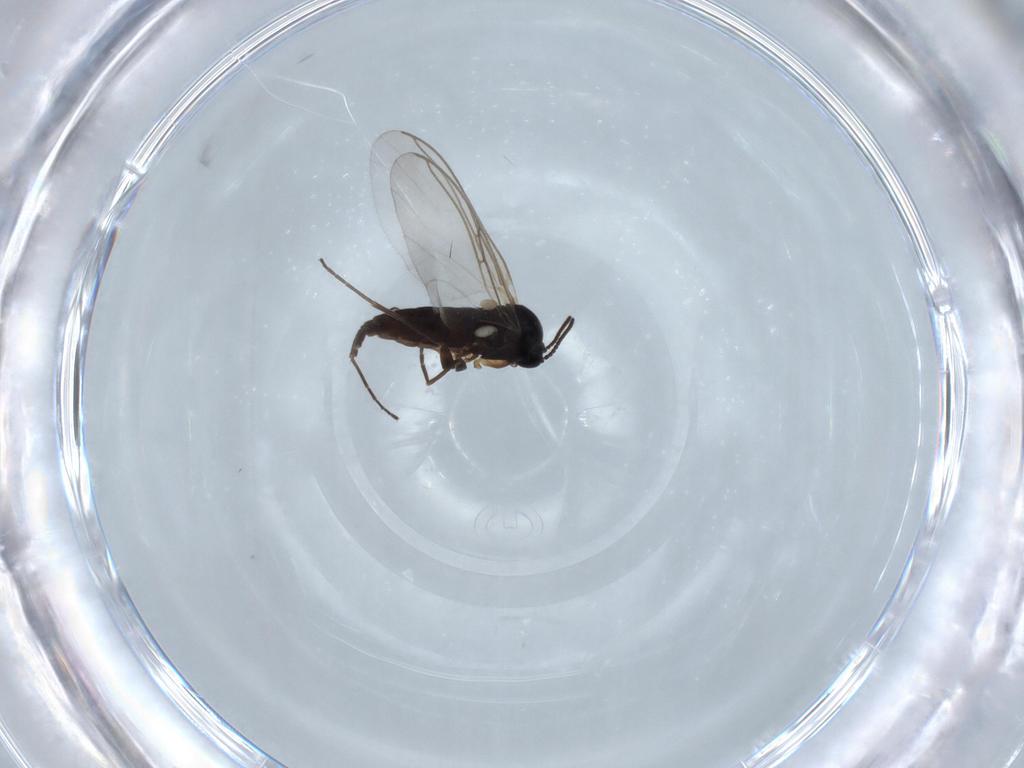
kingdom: Animalia
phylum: Arthropoda
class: Insecta
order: Diptera
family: Sciaridae
